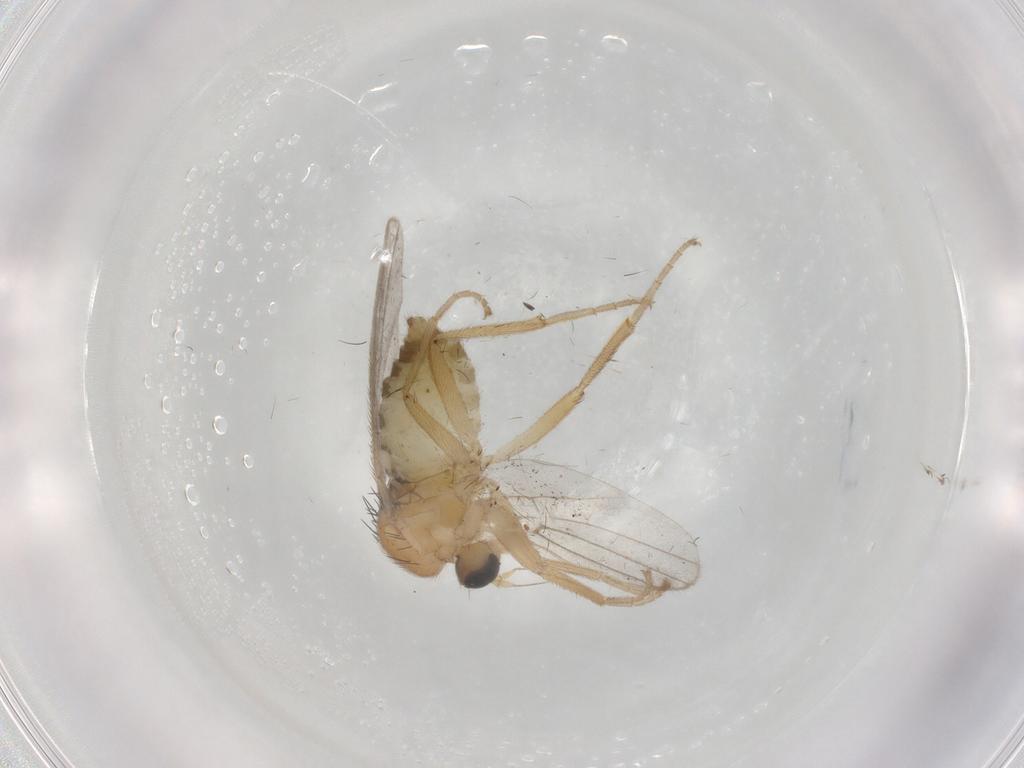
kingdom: Animalia
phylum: Arthropoda
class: Insecta
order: Diptera
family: Hybotidae
